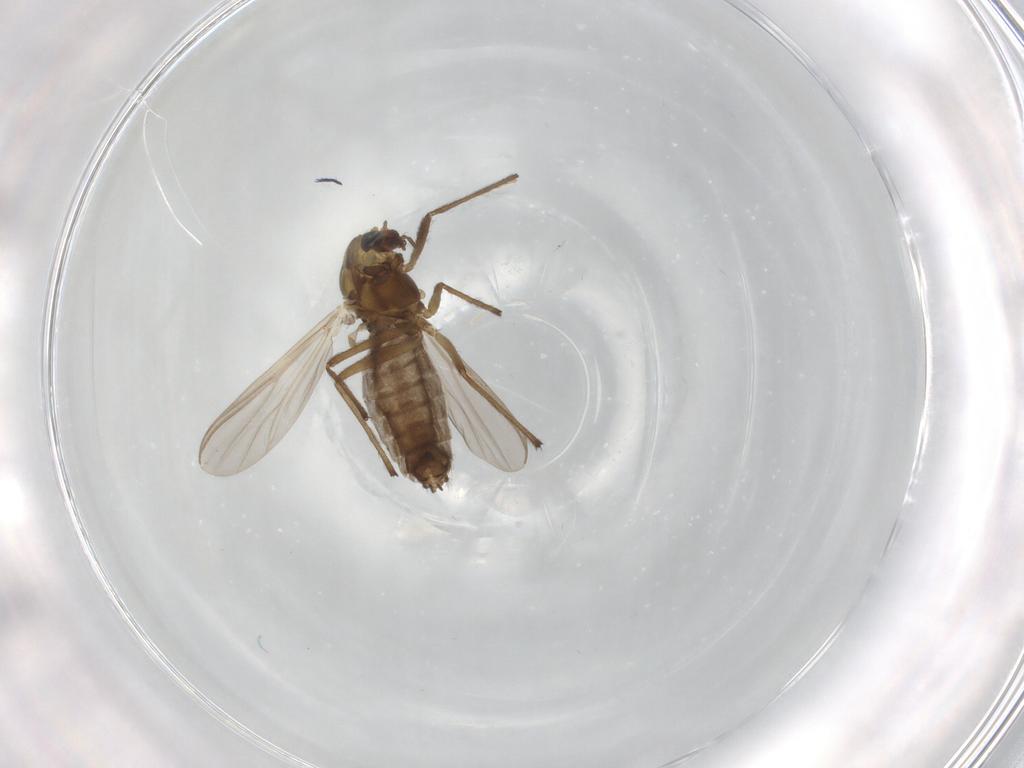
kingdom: Animalia
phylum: Arthropoda
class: Insecta
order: Diptera
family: Chironomidae
